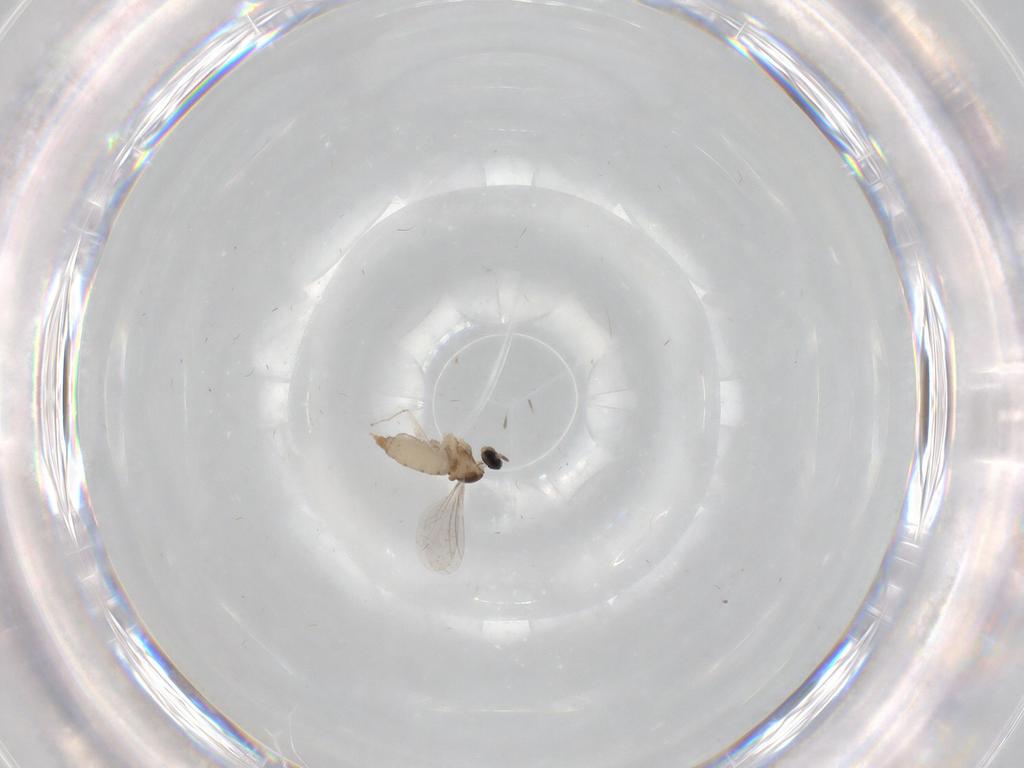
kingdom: Animalia
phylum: Arthropoda
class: Insecta
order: Diptera
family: Cecidomyiidae
